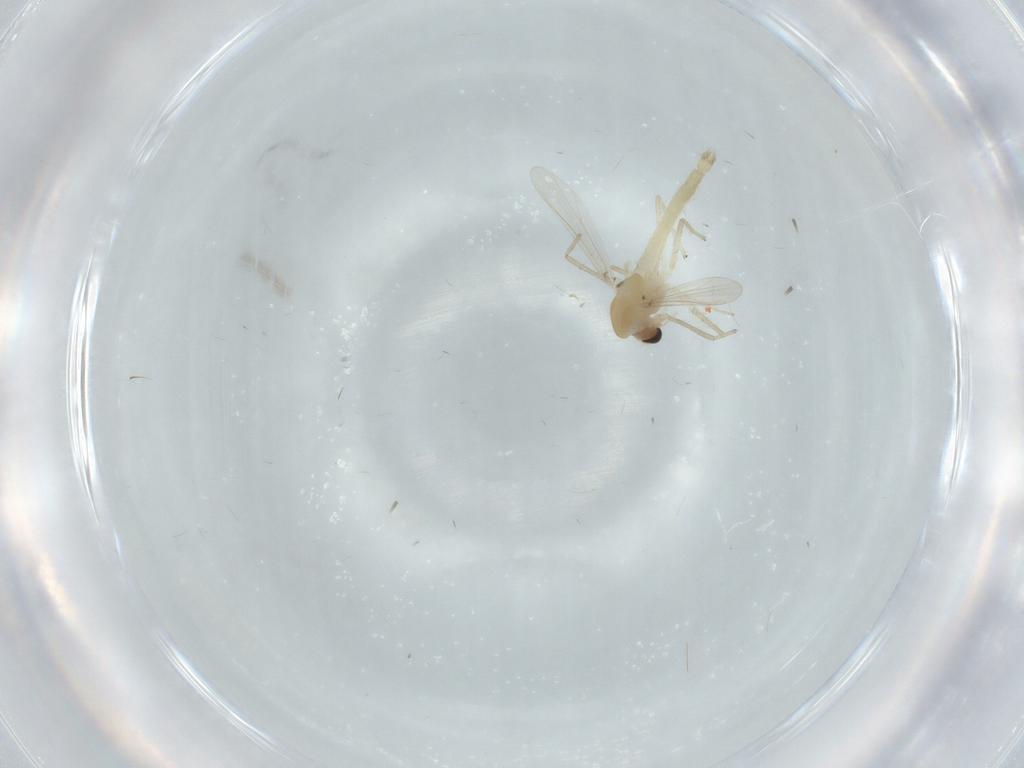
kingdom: Animalia
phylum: Arthropoda
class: Insecta
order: Diptera
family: Chironomidae
